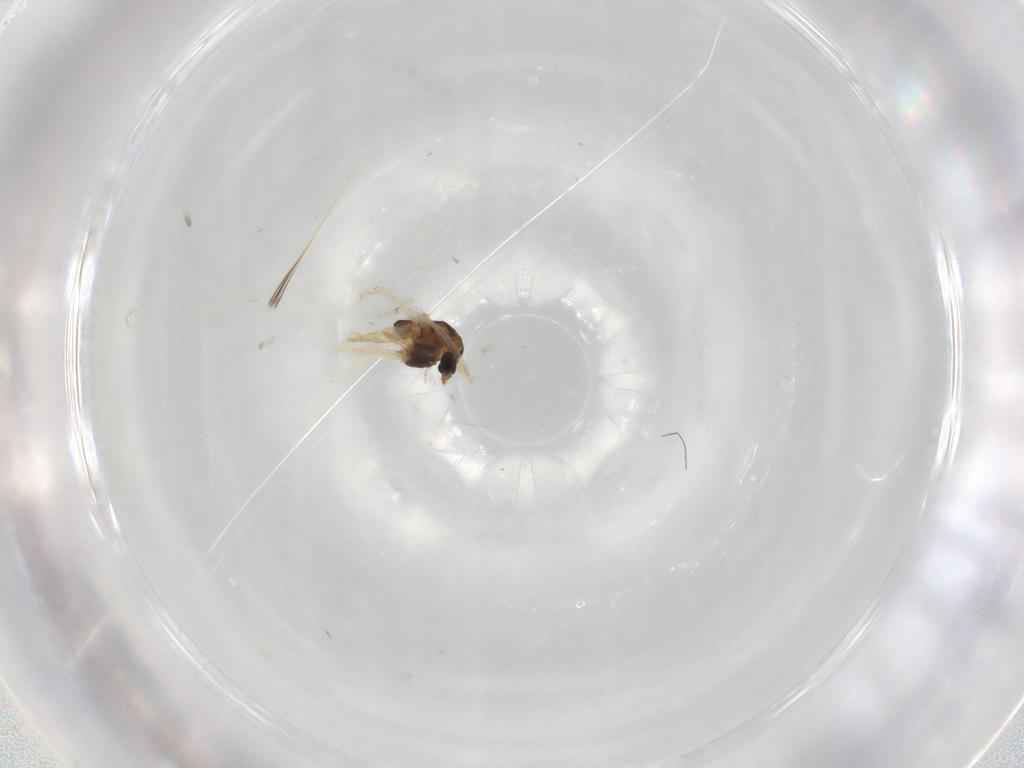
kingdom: Animalia
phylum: Arthropoda
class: Insecta
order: Diptera
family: Chironomidae
